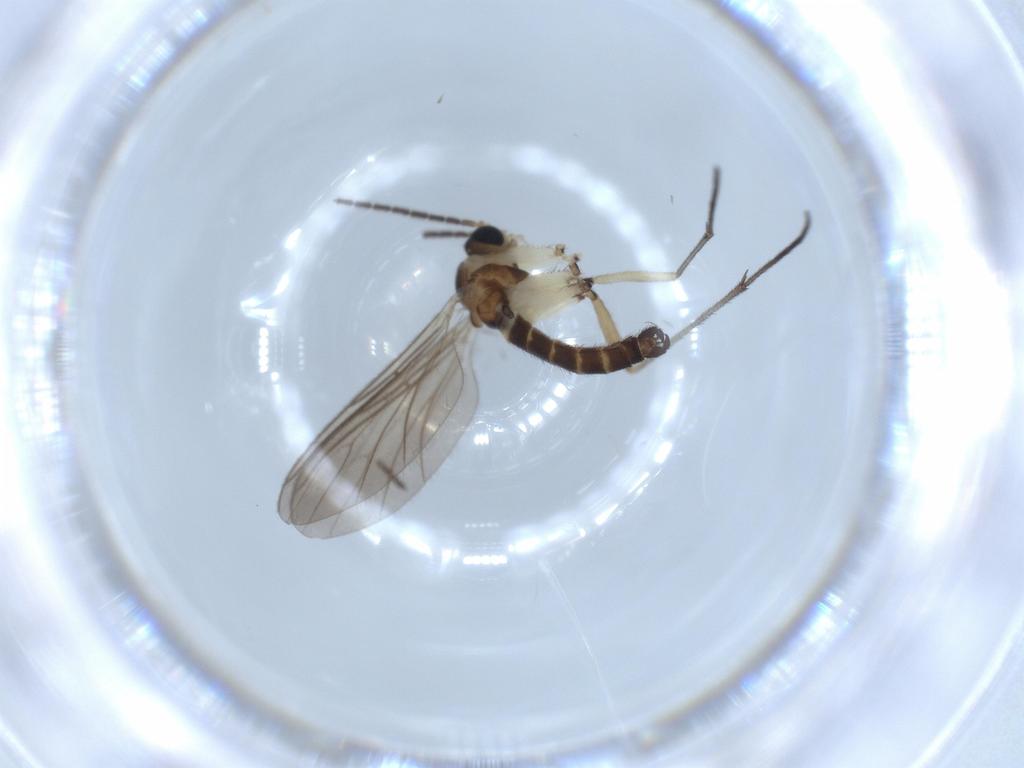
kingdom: Animalia
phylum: Arthropoda
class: Insecta
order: Diptera
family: Sciaridae
